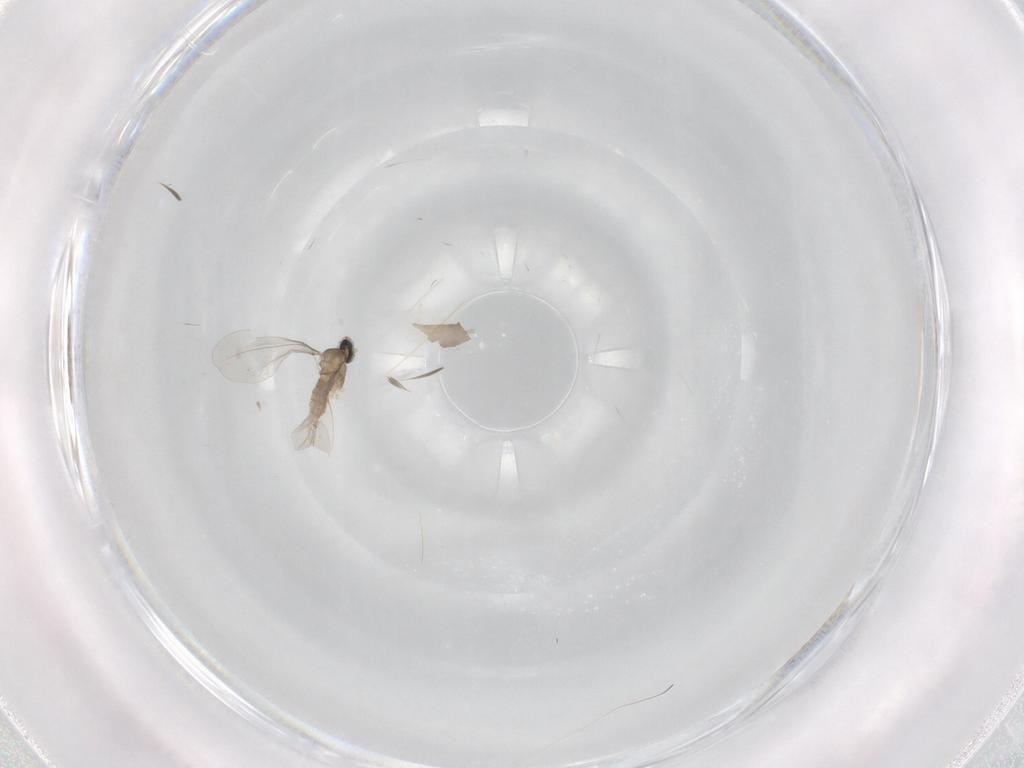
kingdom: Animalia
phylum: Arthropoda
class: Insecta
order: Diptera
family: Cecidomyiidae
